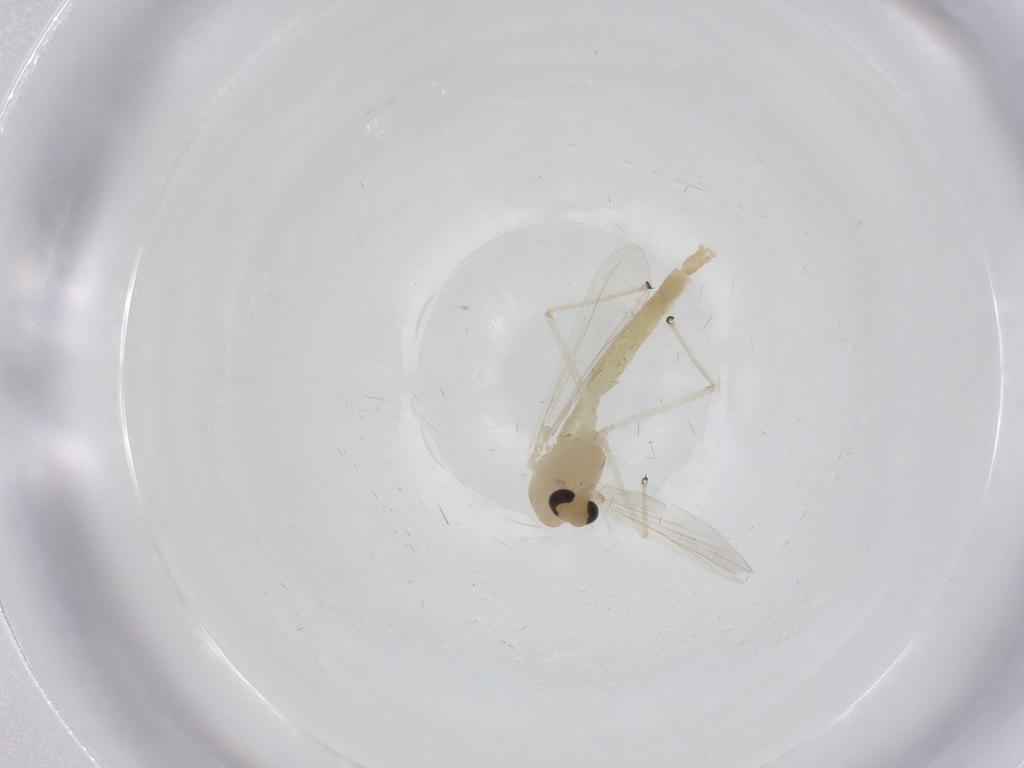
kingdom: Animalia
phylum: Arthropoda
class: Insecta
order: Diptera
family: Chironomidae
